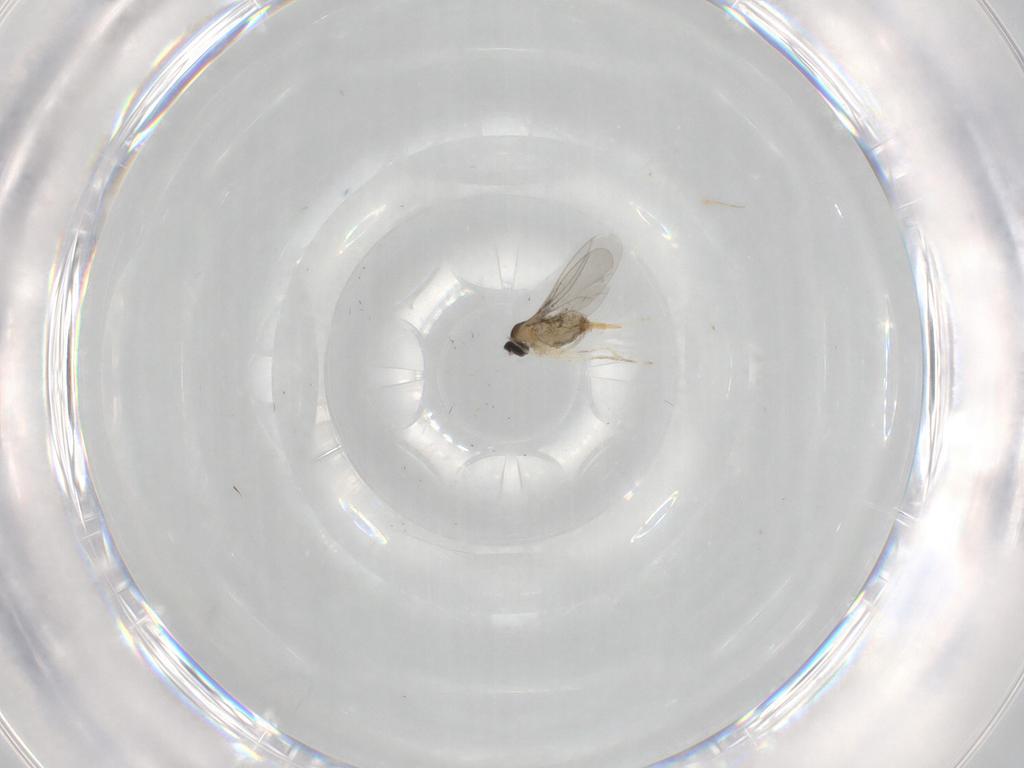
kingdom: Animalia
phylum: Arthropoda
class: Insecta
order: Diptera
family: Cecidomyiidae
